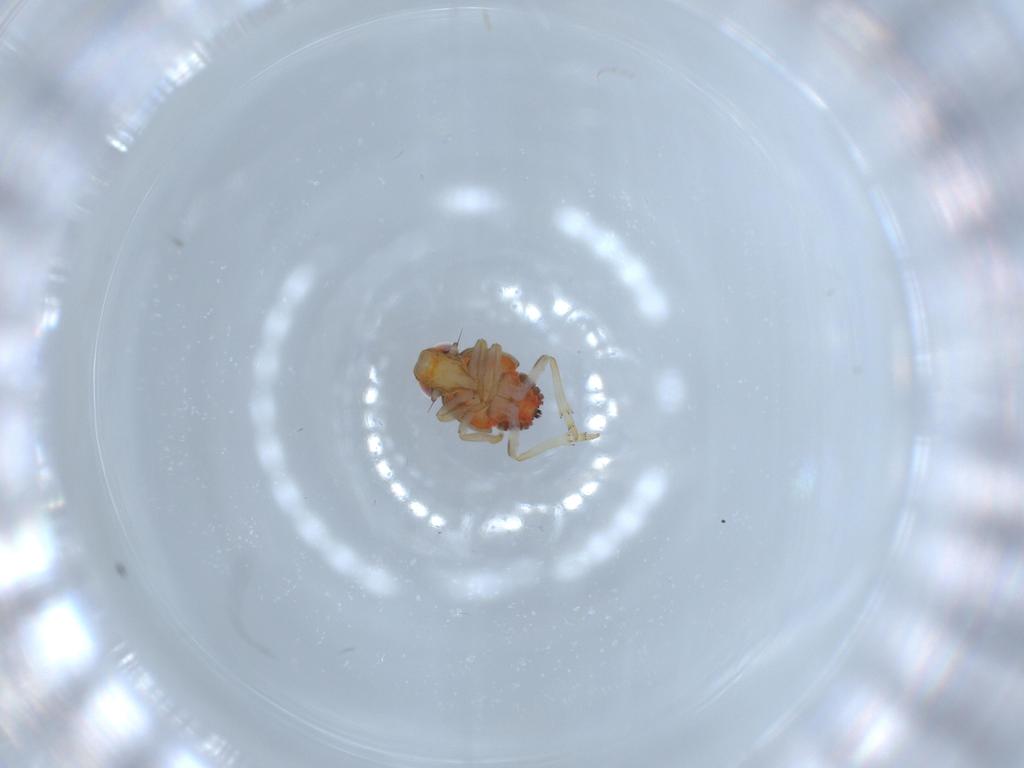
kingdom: Animalia
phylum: Arthropoda
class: Insecta
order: Hemiptera
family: Issidae
